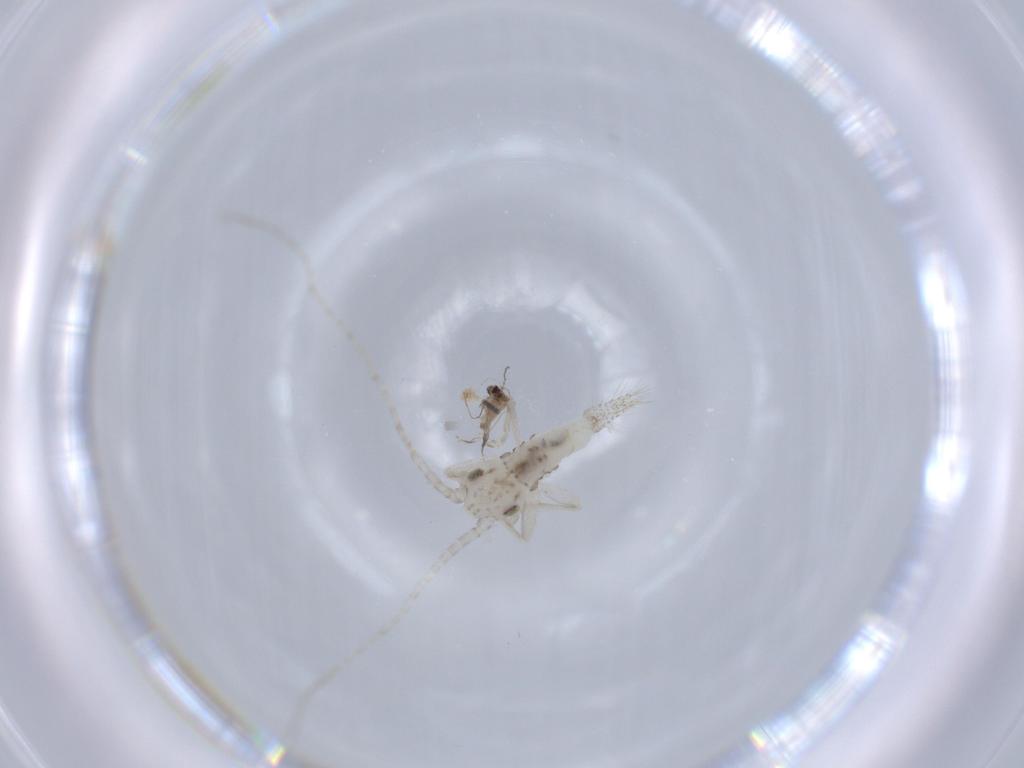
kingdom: Animalia
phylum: Arthropoda
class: Insecta
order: Orthoptera
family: Trigonidiidae
